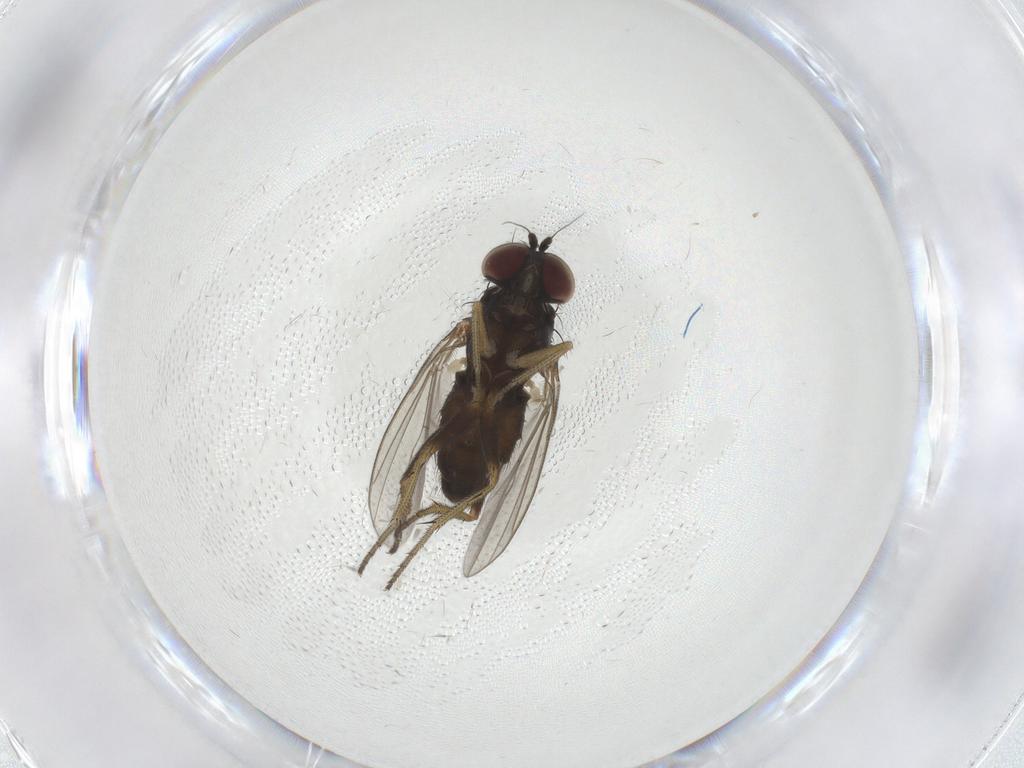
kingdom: Animalia
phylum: Arthropoda
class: Insecta
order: Diptera
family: Dolichopodidae
